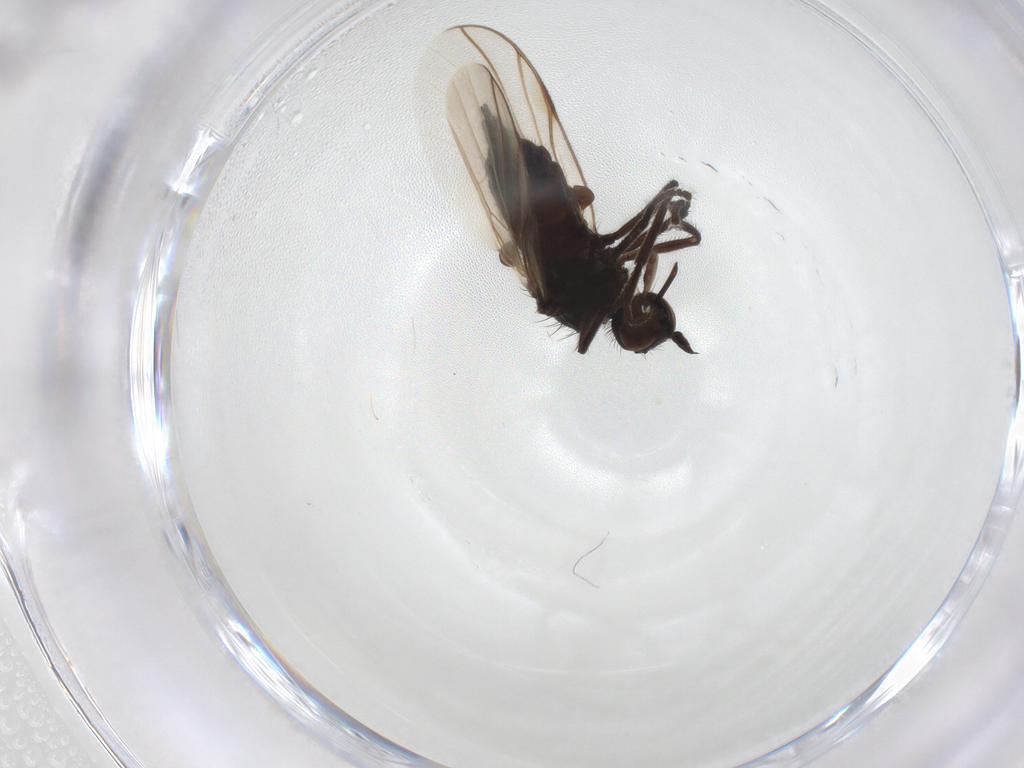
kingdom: Animalia
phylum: Arthropoda
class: Insecta
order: Diptera
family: Empididae
